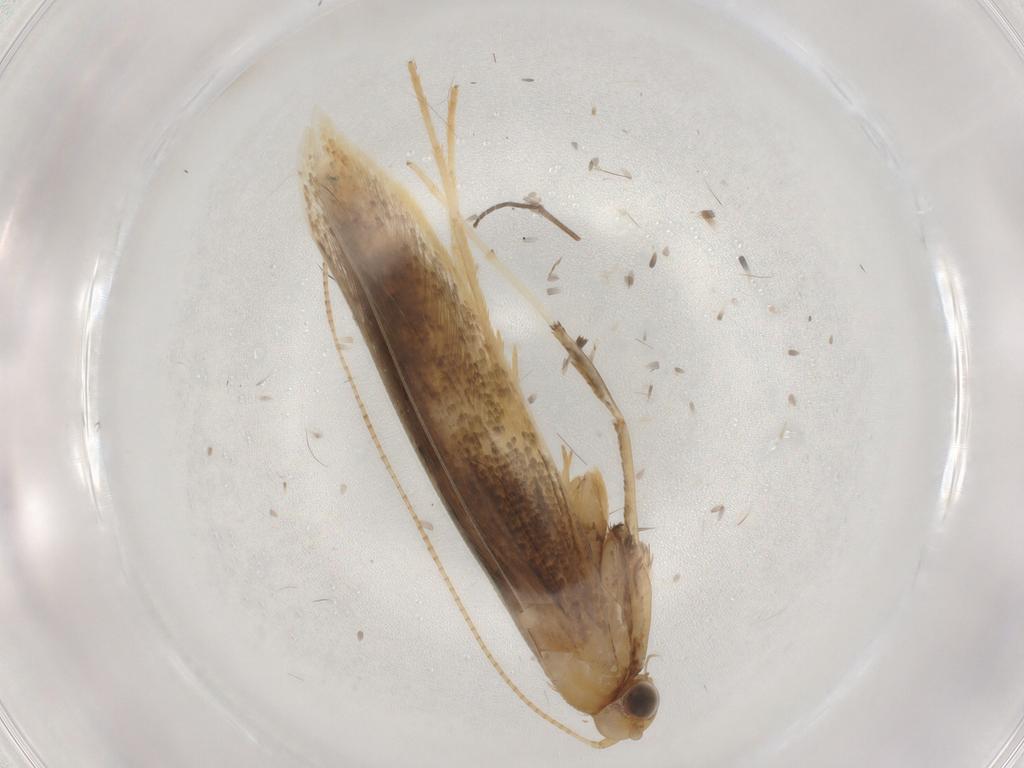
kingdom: Animalia
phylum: Arthropoda
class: Insecta
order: Lepidoptera
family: Gracillariidae
